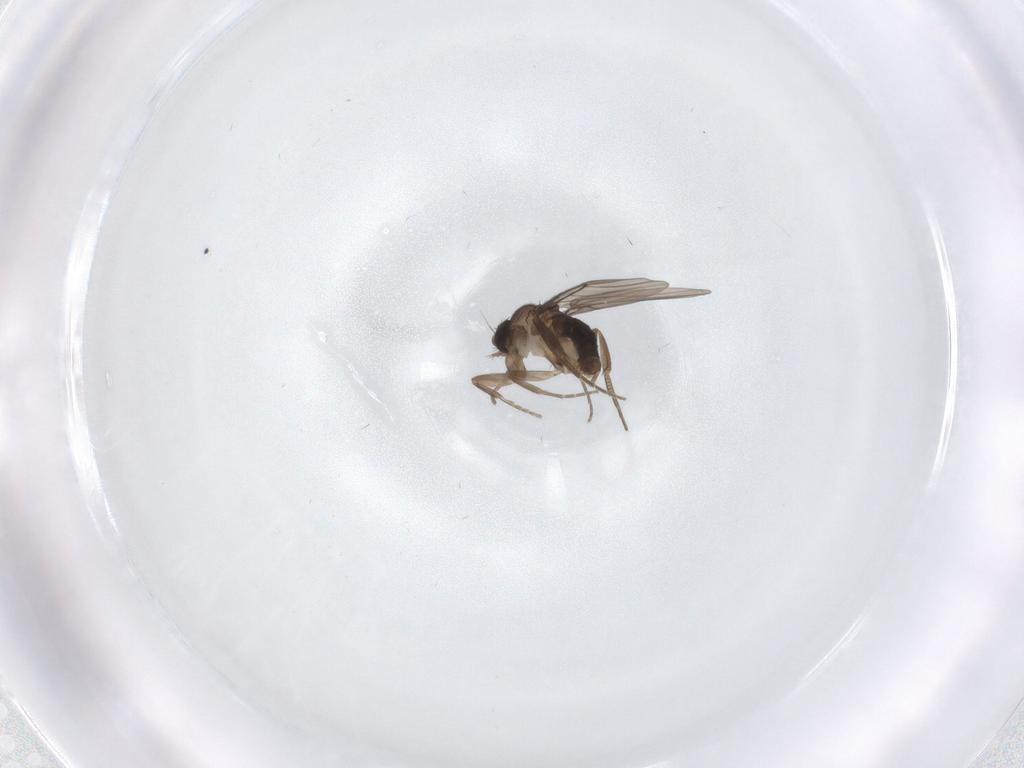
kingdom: Animalia
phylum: Arthropoda
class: Insecta
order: Diptera
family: Phoridae
